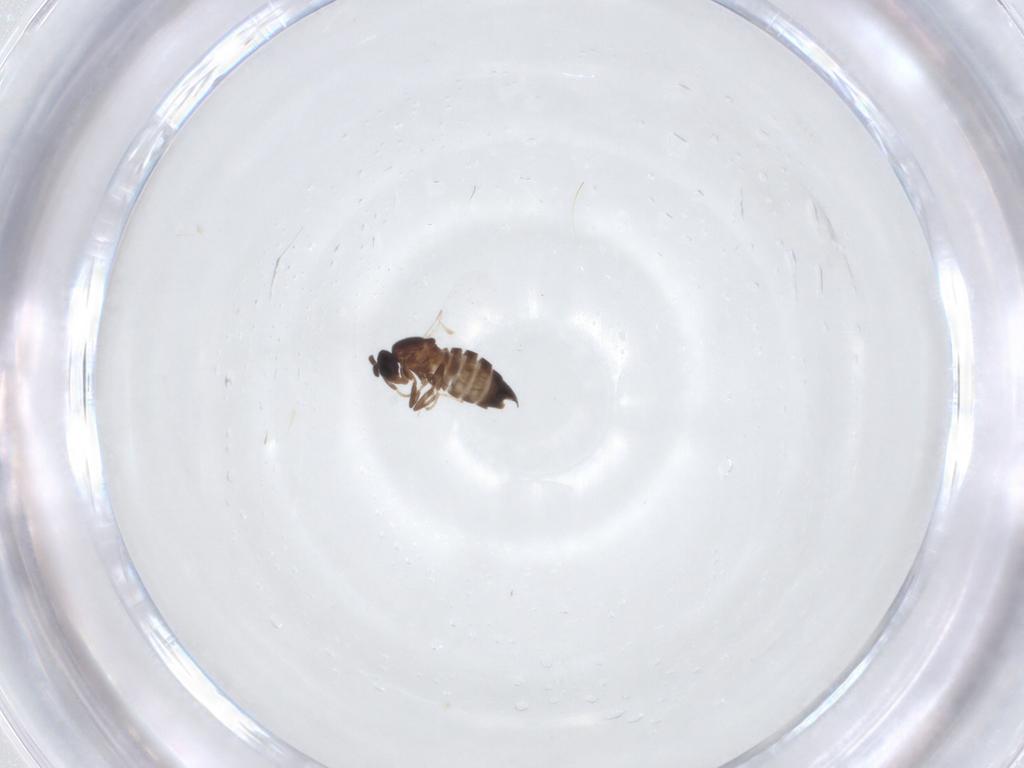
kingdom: Animalia
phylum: Arthropoda
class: Insecta
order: Diptera
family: Scatopsidae
